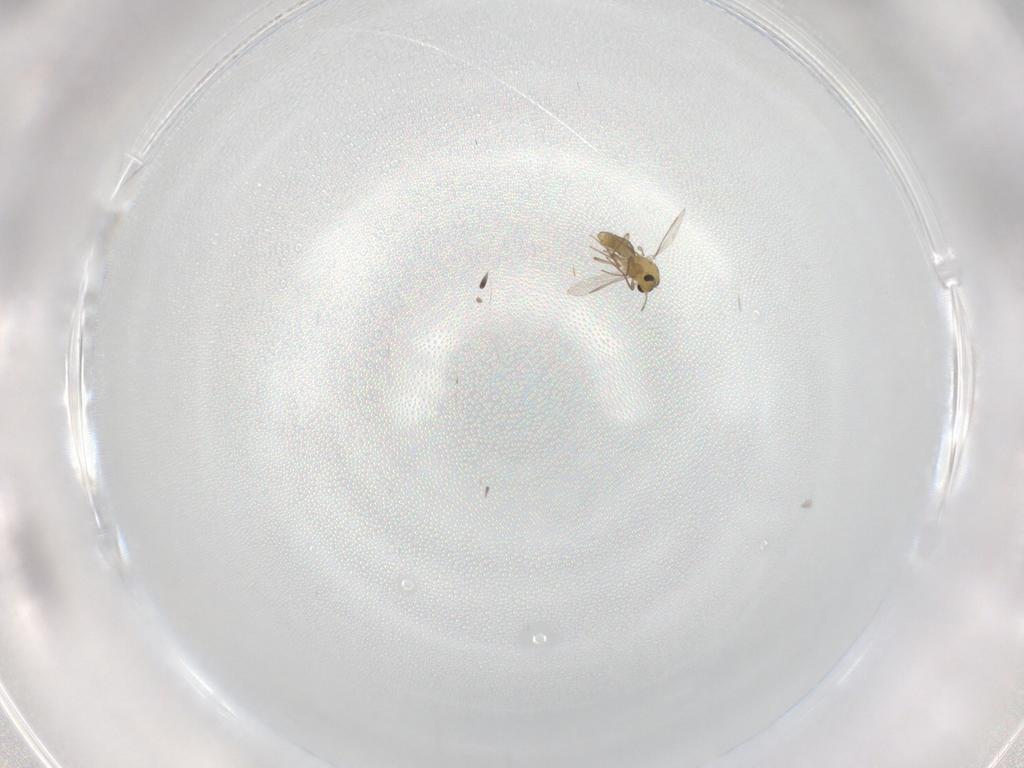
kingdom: Animalia
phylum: Arthropoda
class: Insecta
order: Diptera
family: Chironomidae
